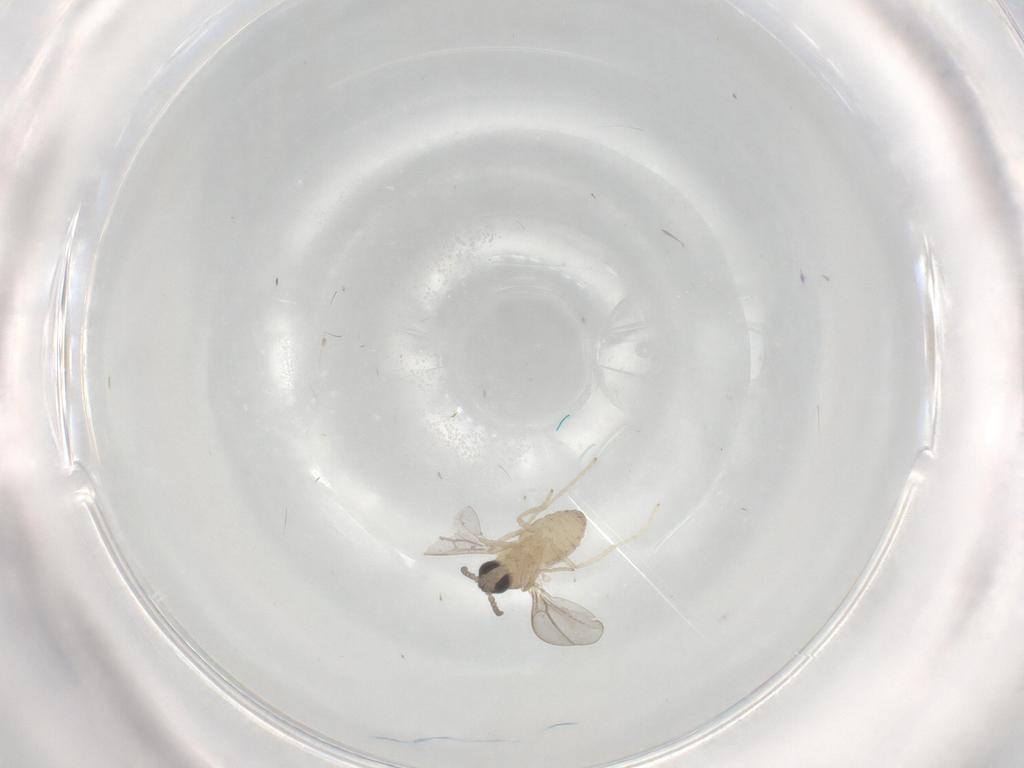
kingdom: Animalia
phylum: Arthropoda
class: Insecta
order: Diptera
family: Cecidomyiidae
